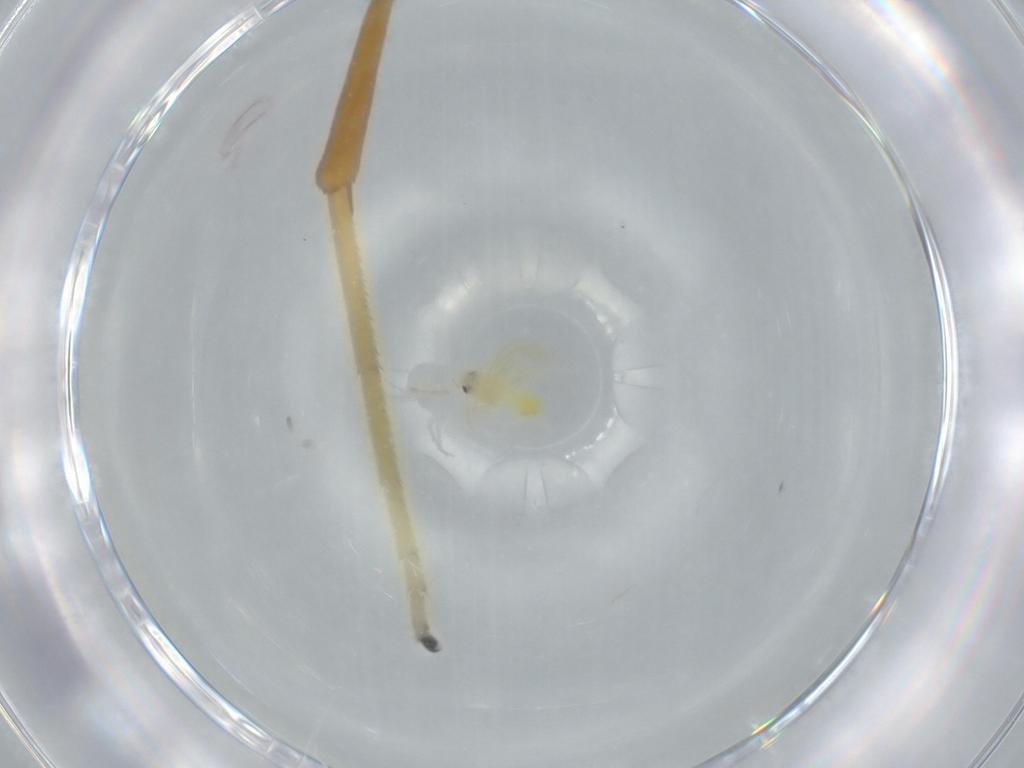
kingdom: Animalia
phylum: Arthropoda
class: Insecta
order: Hemiptera
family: Aleyrodidae
